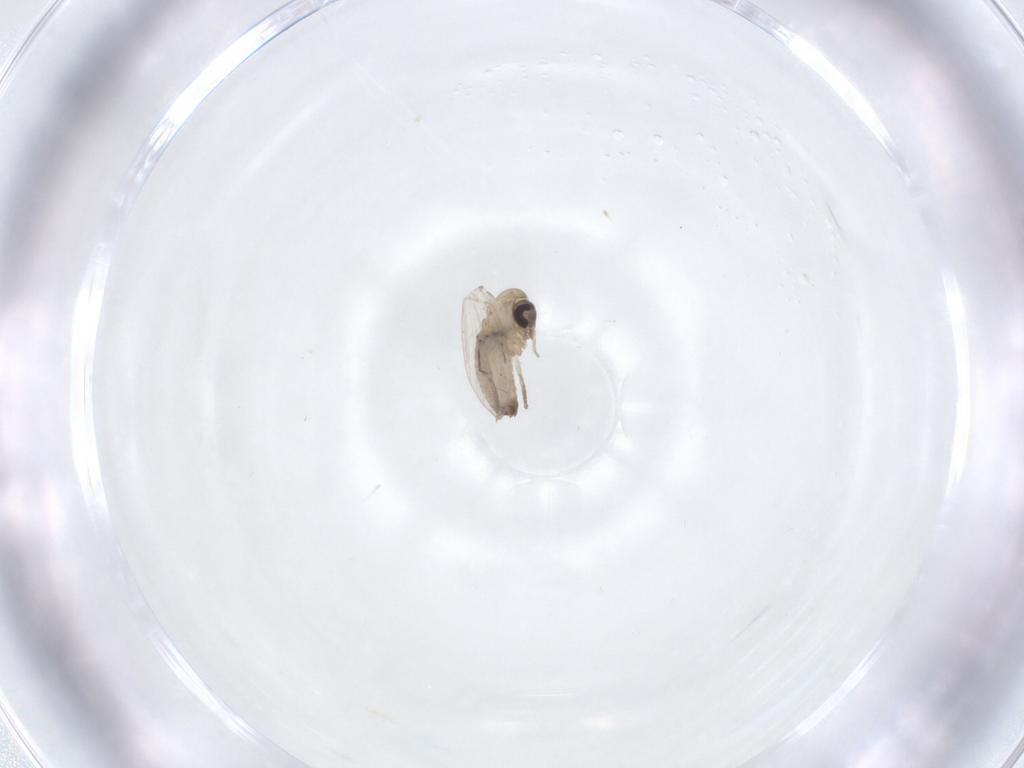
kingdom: Animalia
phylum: Arthropoda
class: Insecta
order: Diptera
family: Psychodidae
